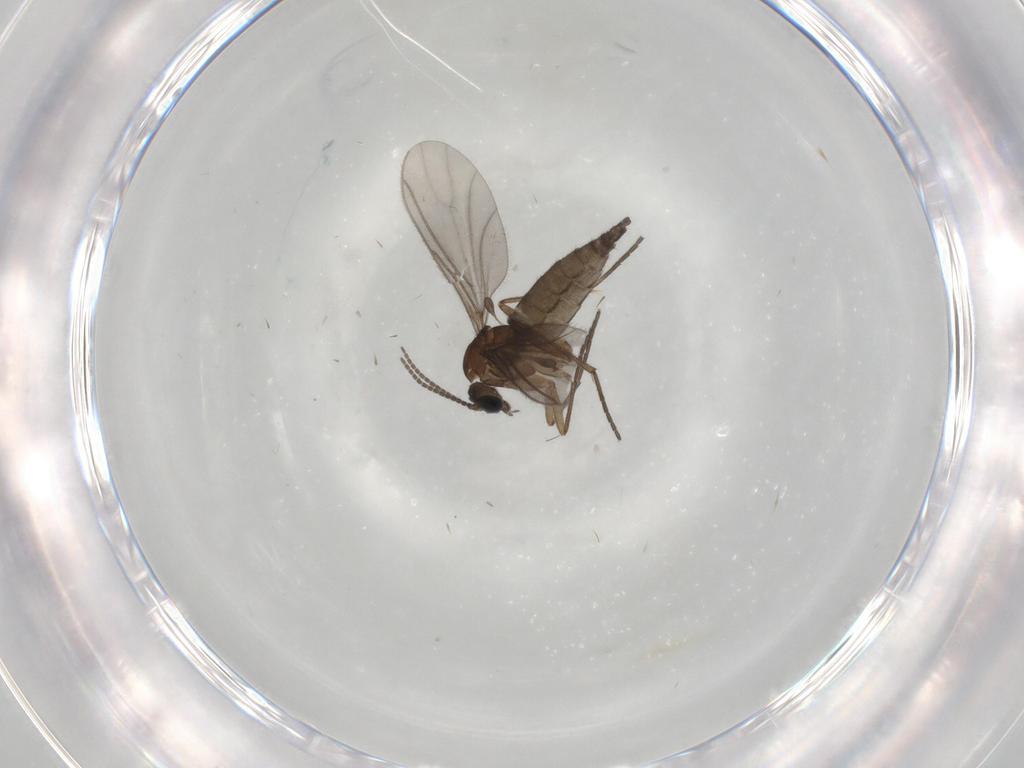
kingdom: Animalia
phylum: Arthropoda
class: Insecta
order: Diptera
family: Sciaridae
